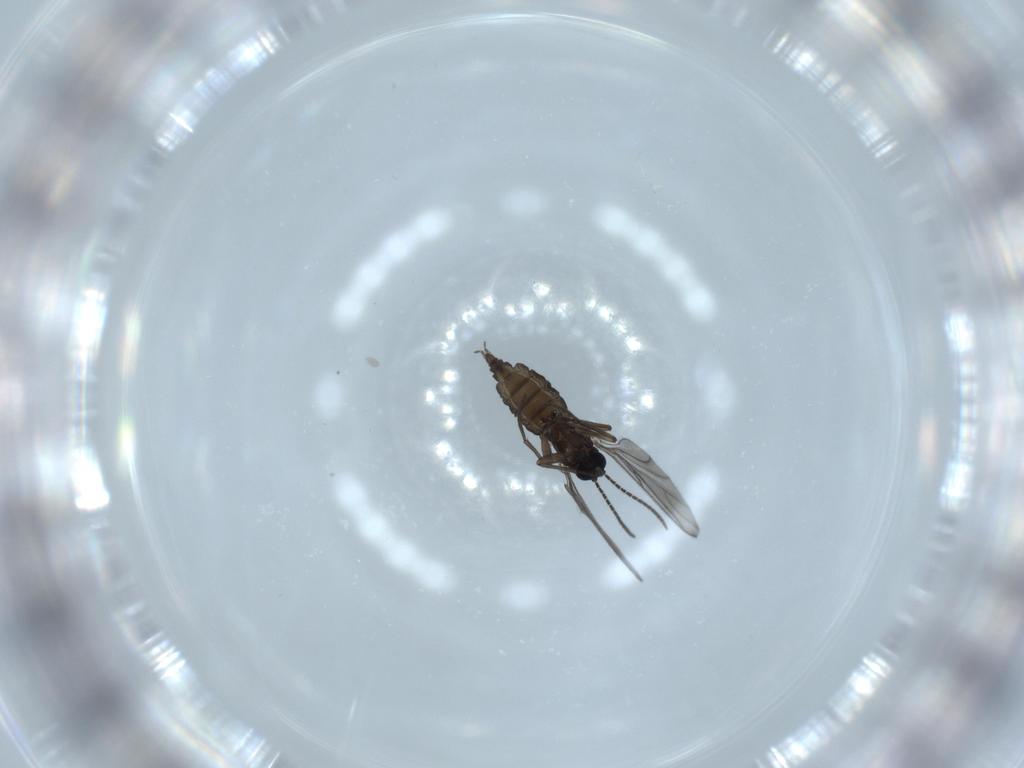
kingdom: Animalia
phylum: Arthropoda
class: Insecta
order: Diptera
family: Sciaridae
